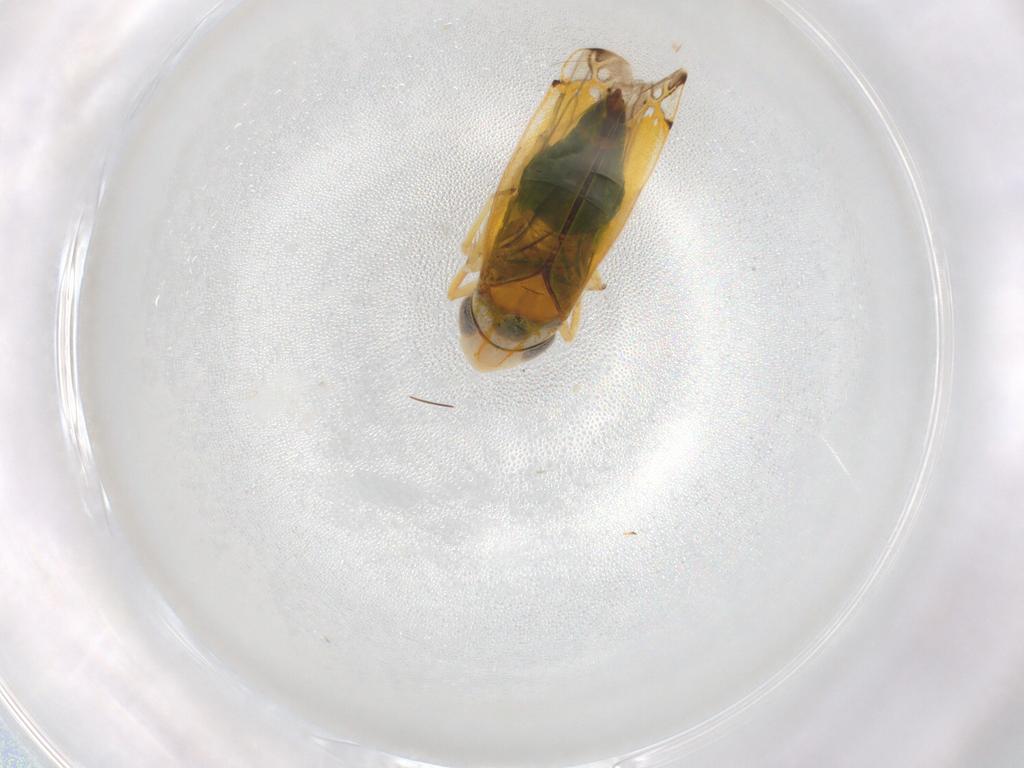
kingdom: Animalia
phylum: Arthropoda
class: Insecta
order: Hemiptera
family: Cicadellidae
